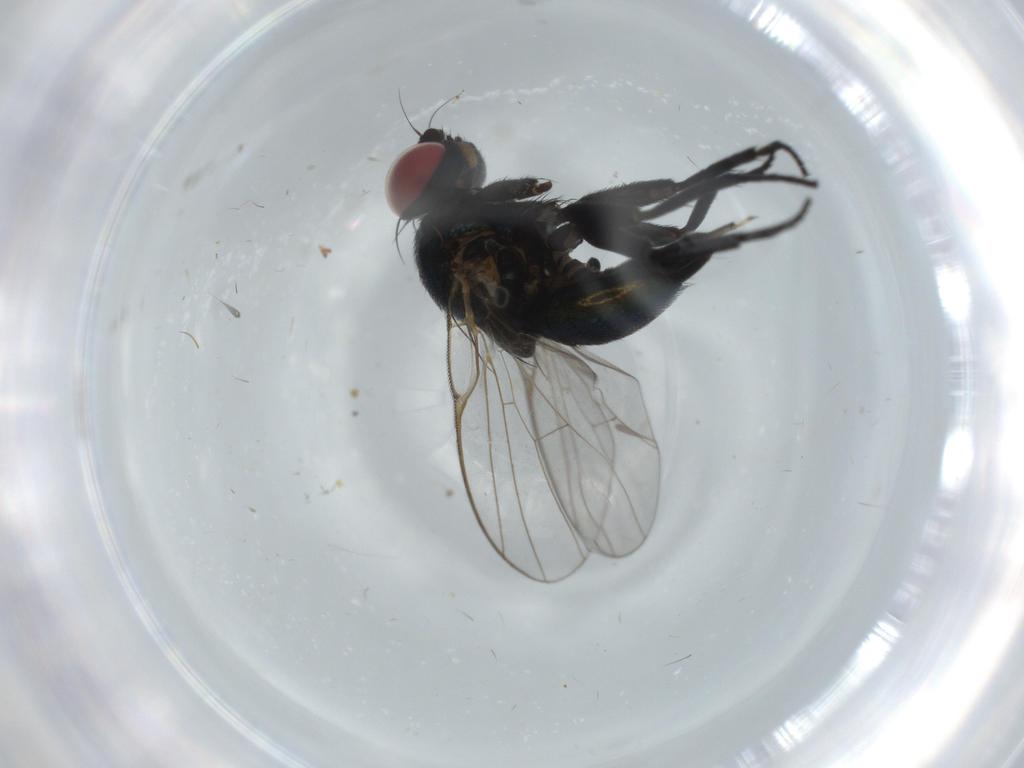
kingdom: Animalia
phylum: Arthropoda
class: Insecta
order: Diptera
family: Agromyzidae
